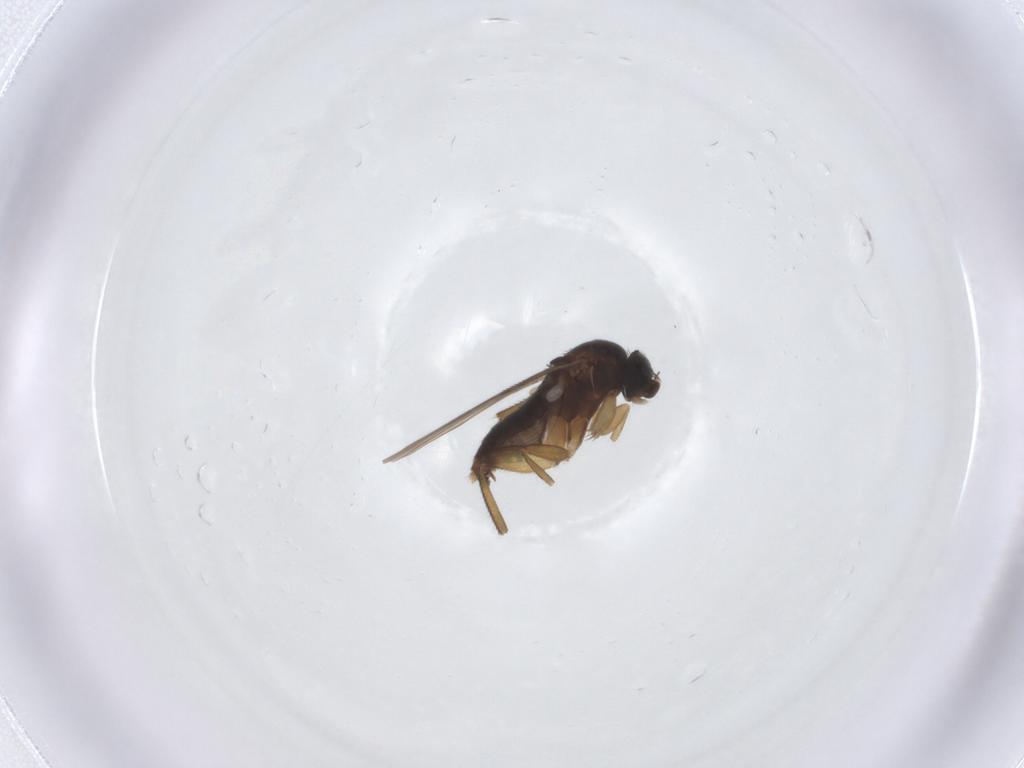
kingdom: Animalia
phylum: Arthropoda
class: Insecta
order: Diptera
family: Phoridae
